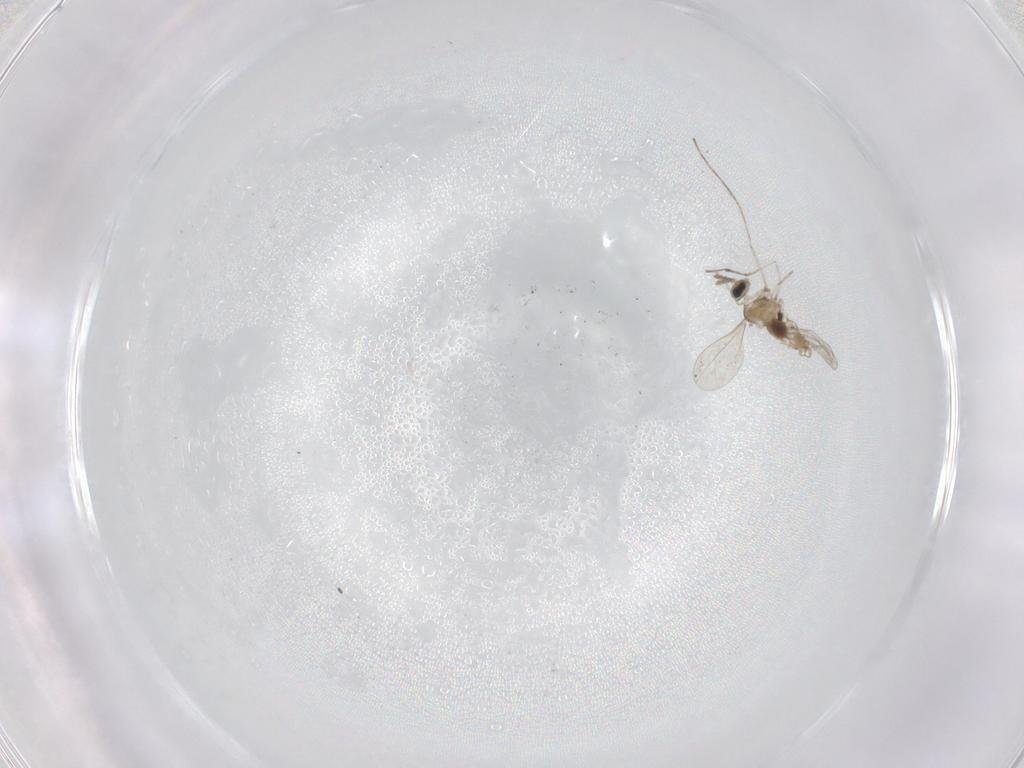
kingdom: Animalia
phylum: Arthropoda
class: Insecta
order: Diptera
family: Cecidomyiidae
